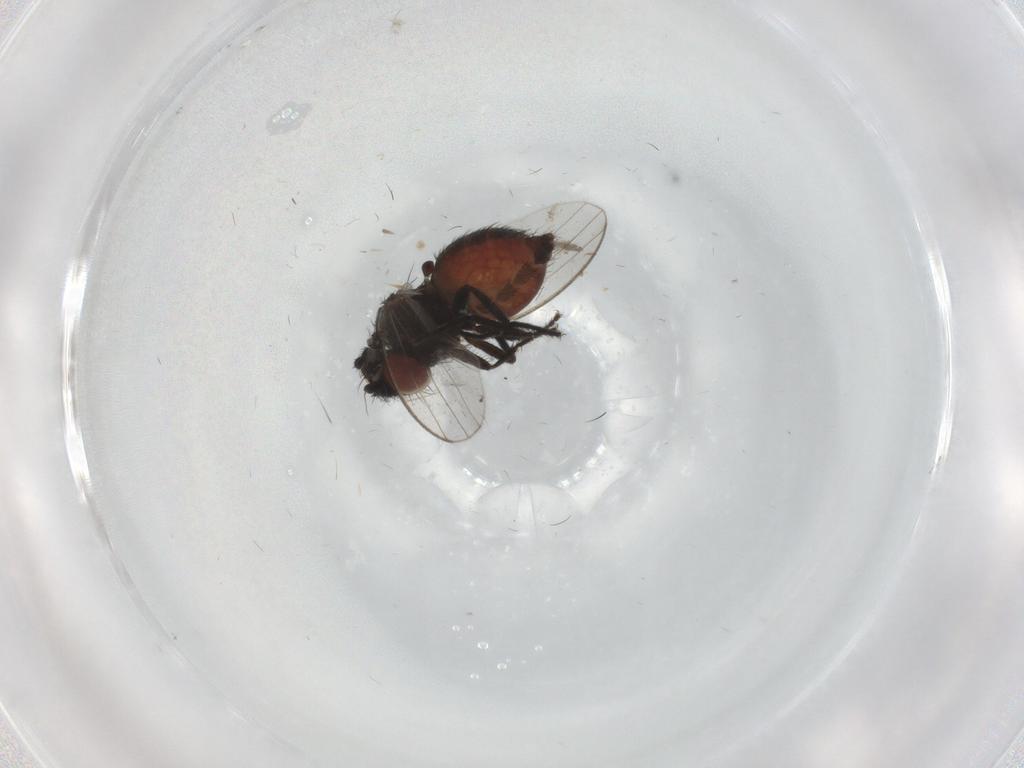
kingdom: Animalia
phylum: Arthropoda
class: Insecta
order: Diptera
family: Milichiidae
